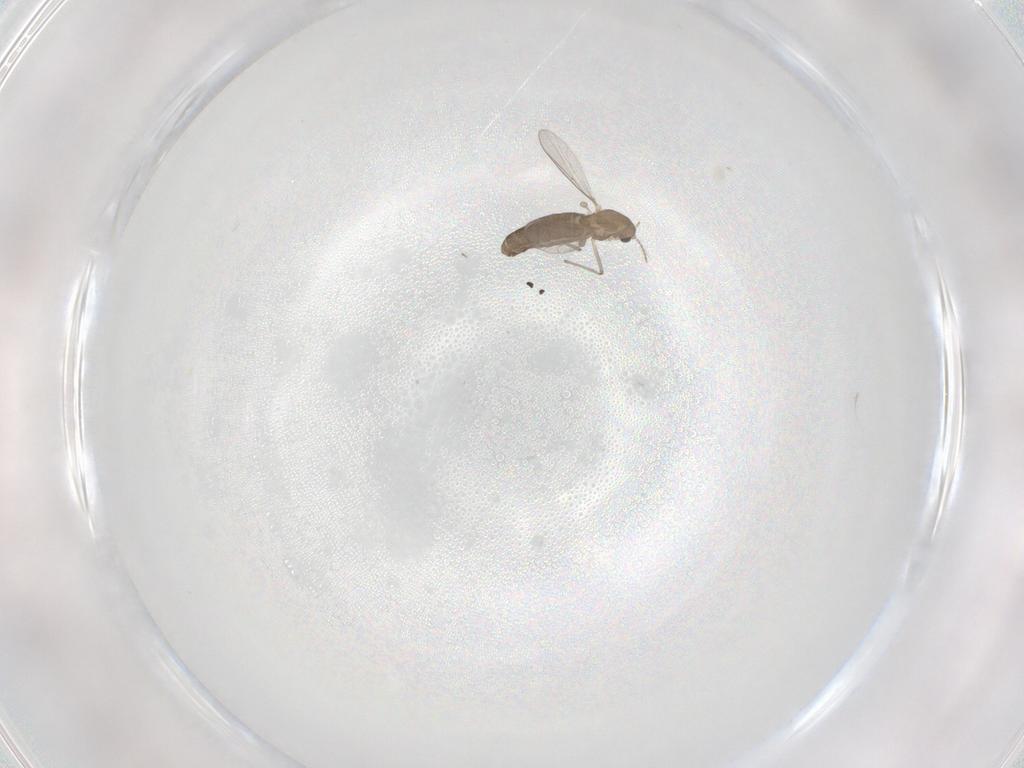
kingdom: Animalia
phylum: Arthropoda
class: Insecta
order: Diptera
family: Chironomidae
